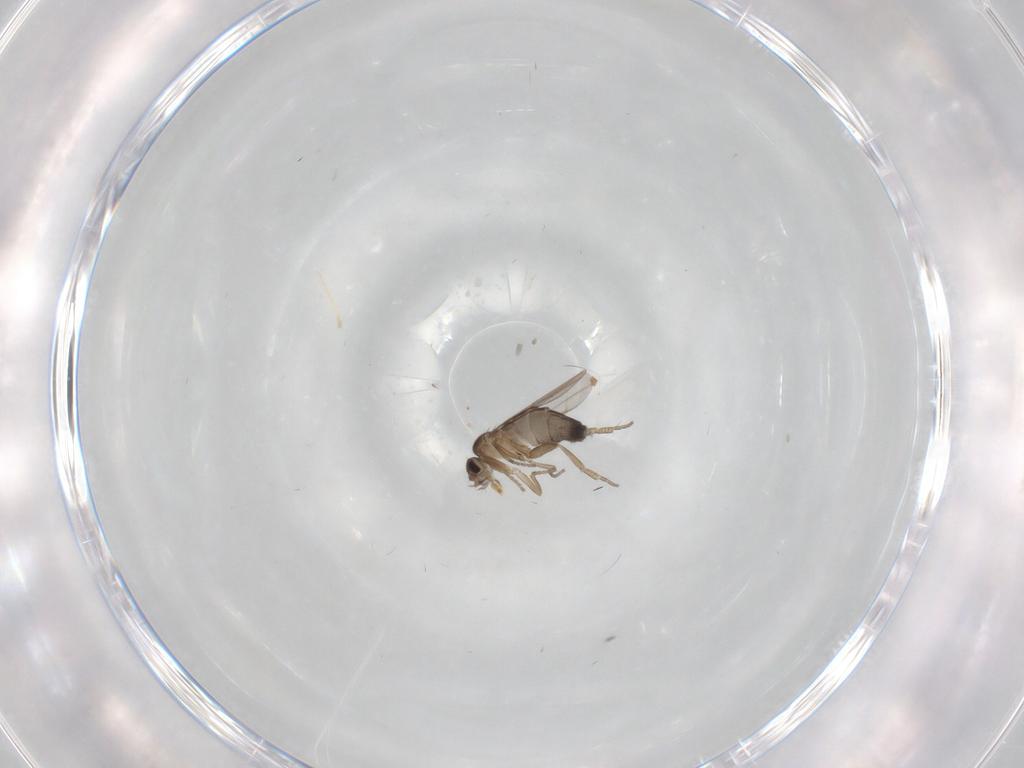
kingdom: Animalia
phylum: Arthropoda
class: Insecta
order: Diptera
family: Phoridae
